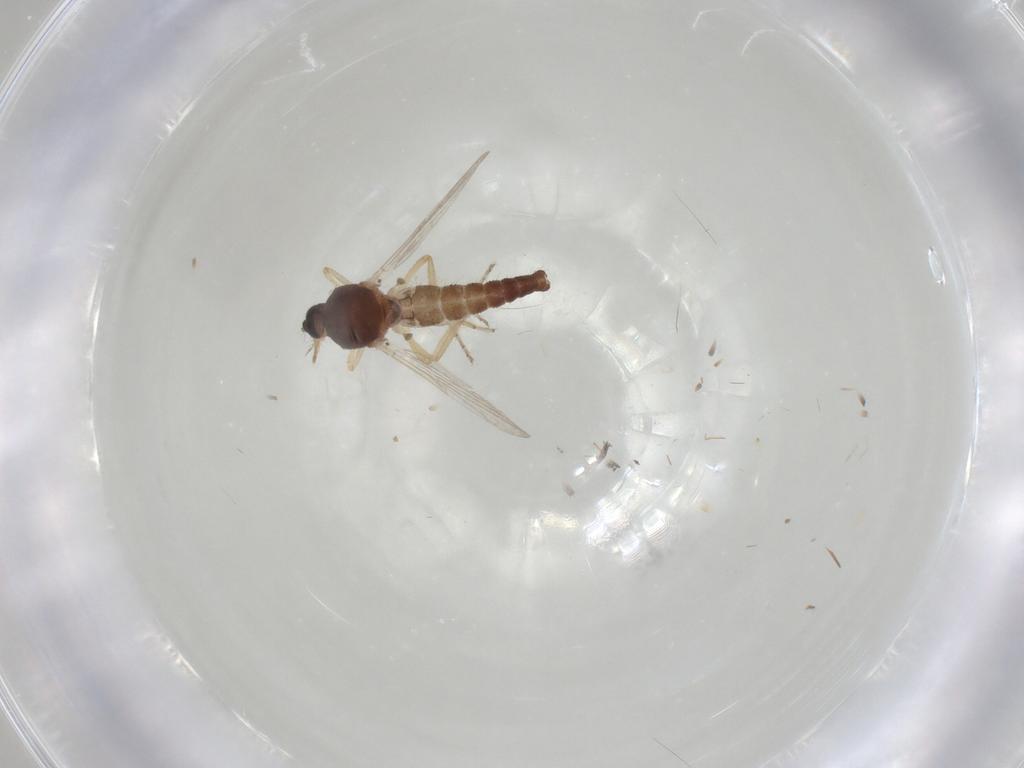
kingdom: Animalia
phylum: Arthropoda
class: Insecta
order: Diptera
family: Ceratopogonidae
